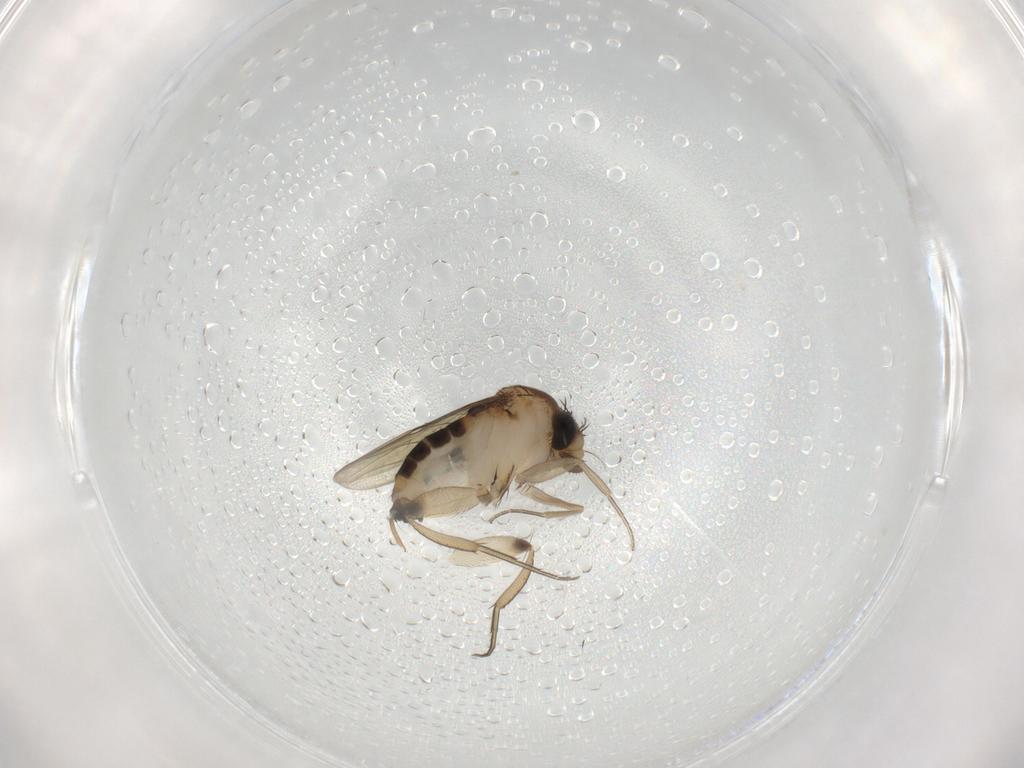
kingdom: Animalia
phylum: Arthropoda
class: Insecta
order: Diptera
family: Phoridae
